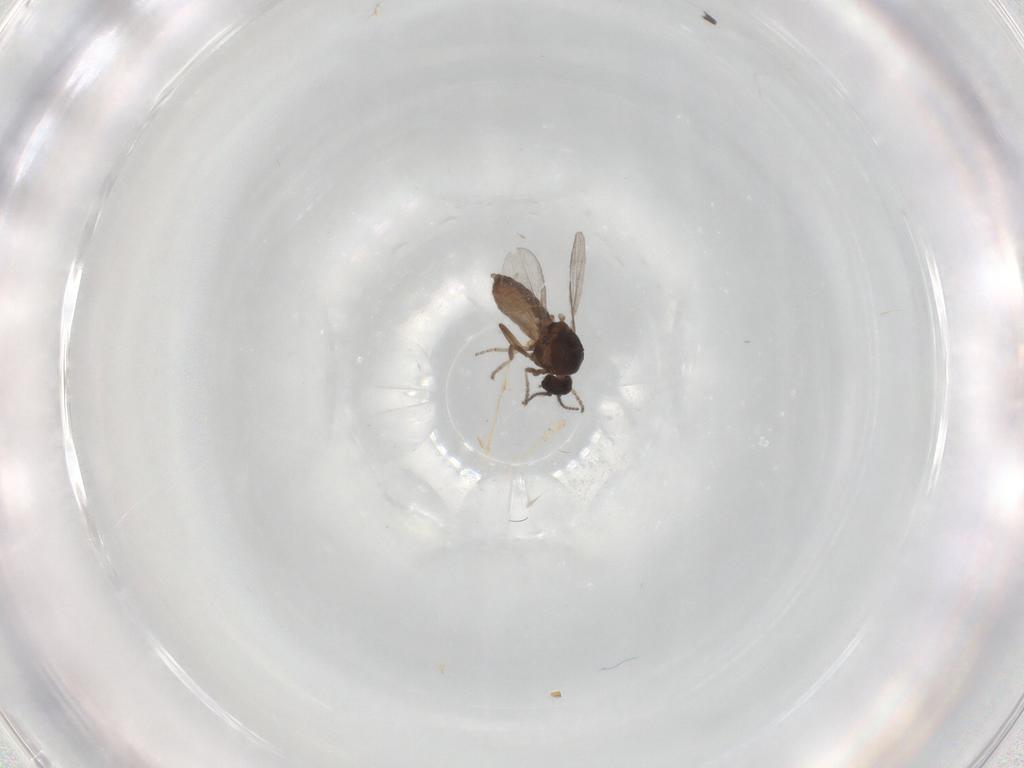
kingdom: Animalia
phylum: Arthropoda
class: Insecta
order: Diptera
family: Ceratopogonidae
